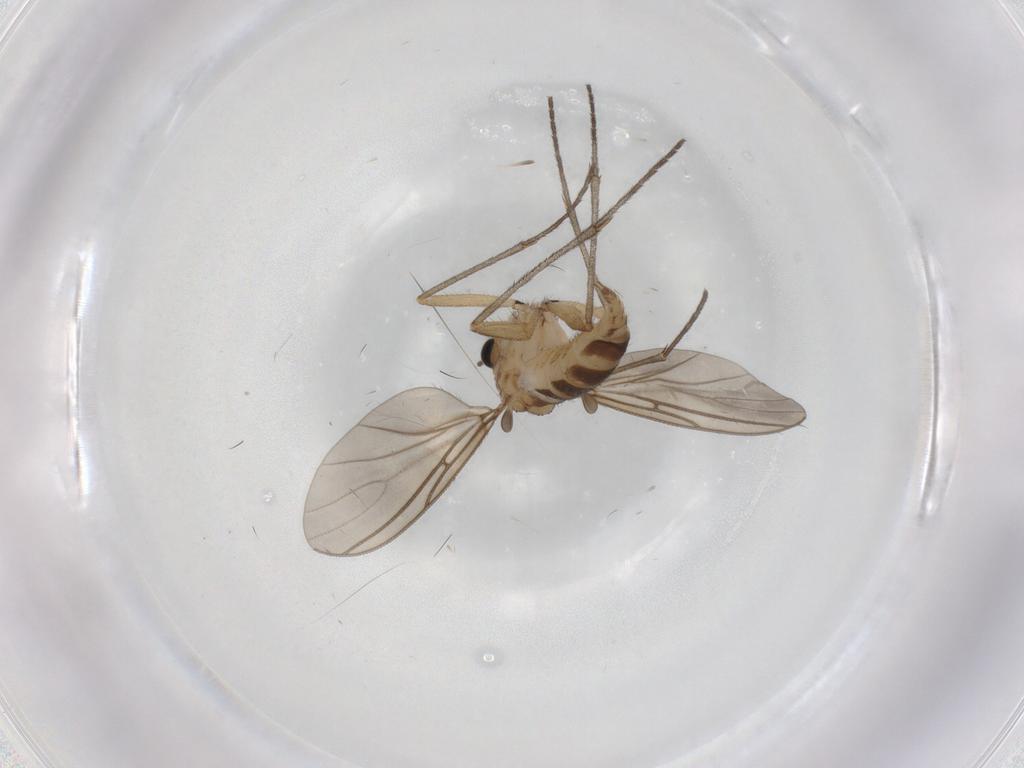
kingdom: Animalia
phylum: Arthropoda
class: Insecta
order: Diptera
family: Sciaridae
